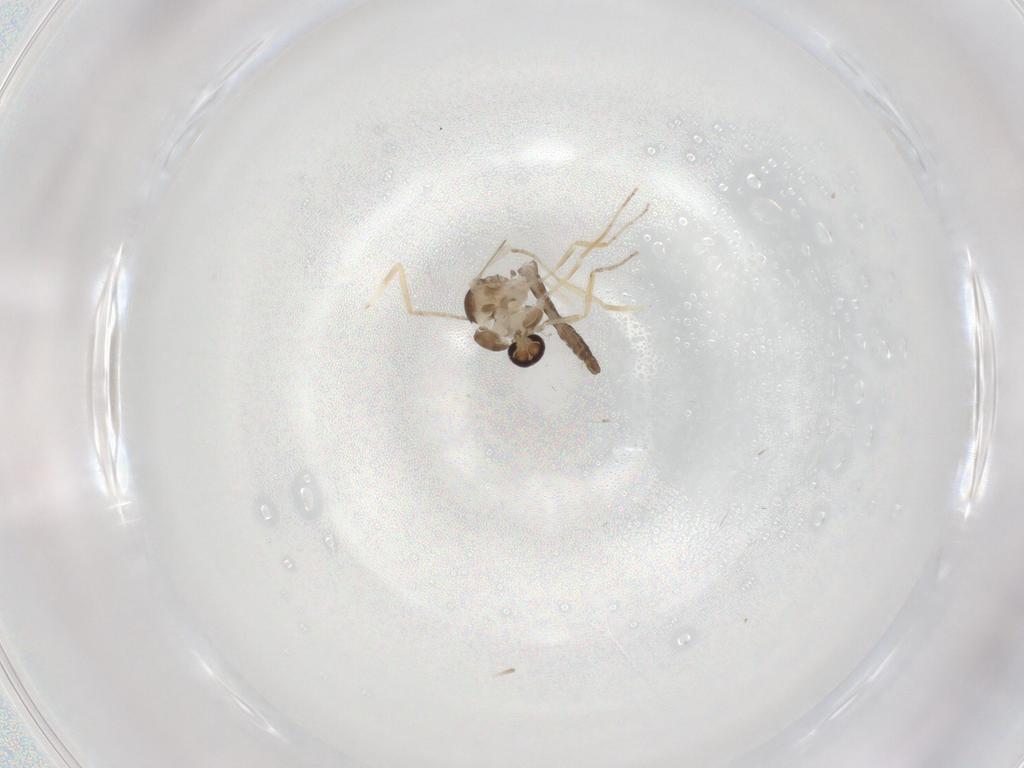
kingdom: Animalia
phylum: Arthropoda
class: Insecta
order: Diptera
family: Ceratopogonidae
